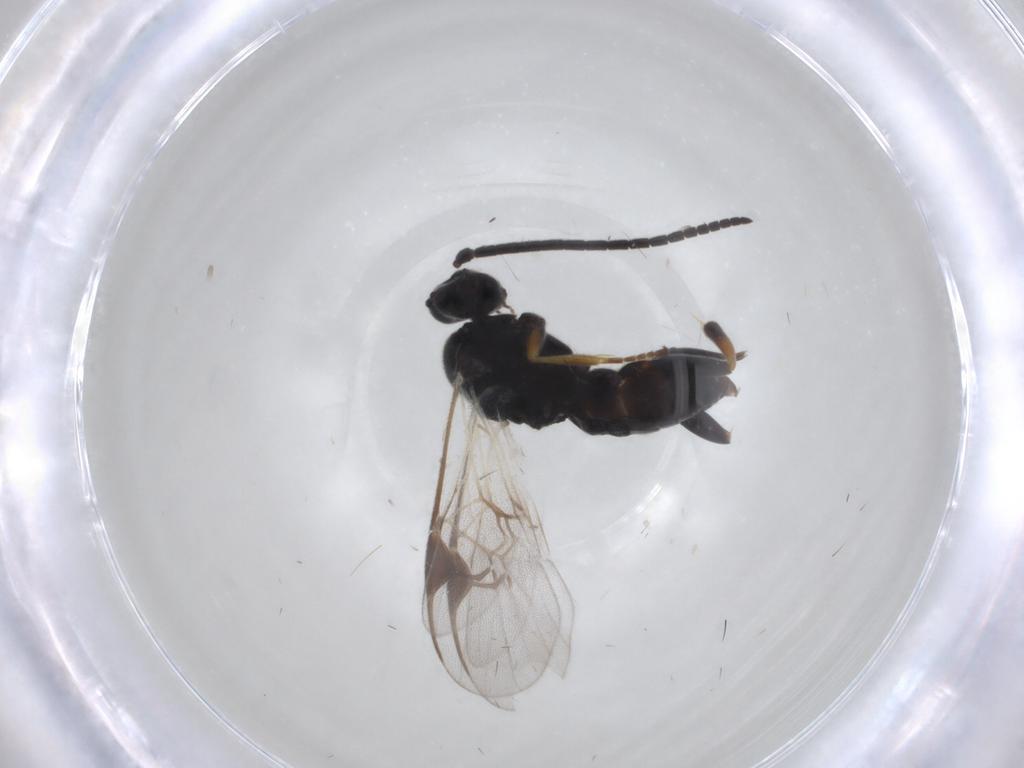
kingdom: Animalia
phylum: Arthropoda
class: Insecta
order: Hymenoptera
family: Braconidae
